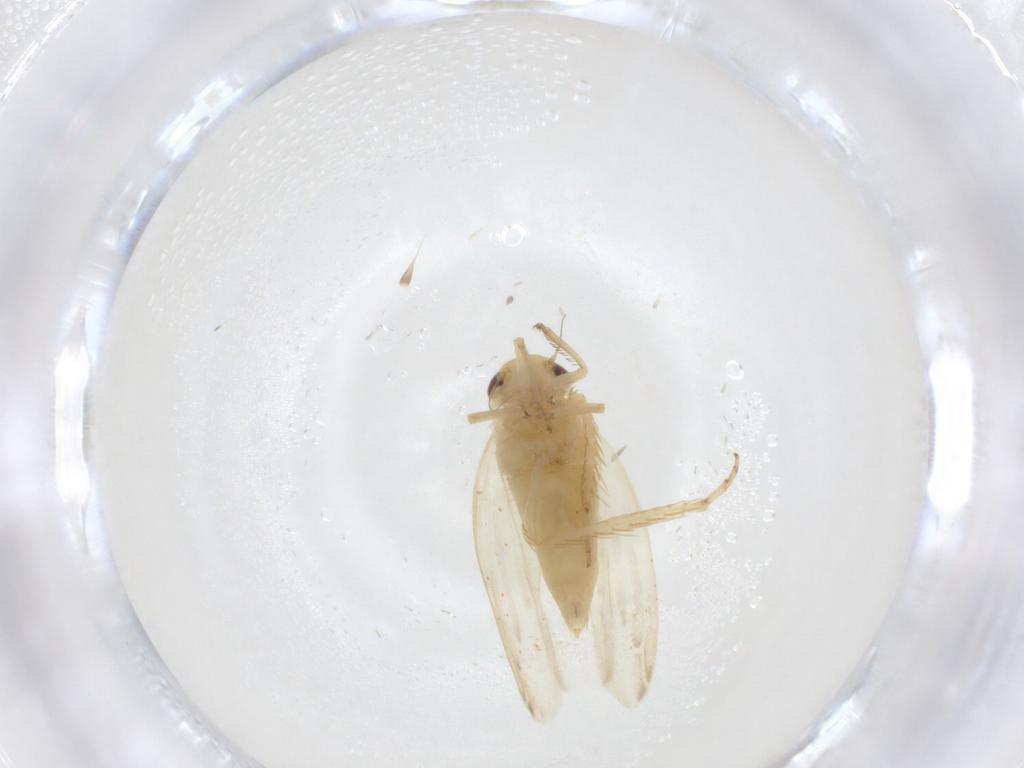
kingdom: Animalia
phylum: Arthropoda
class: Insecta
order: Hemiptera
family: Cicadellidae
